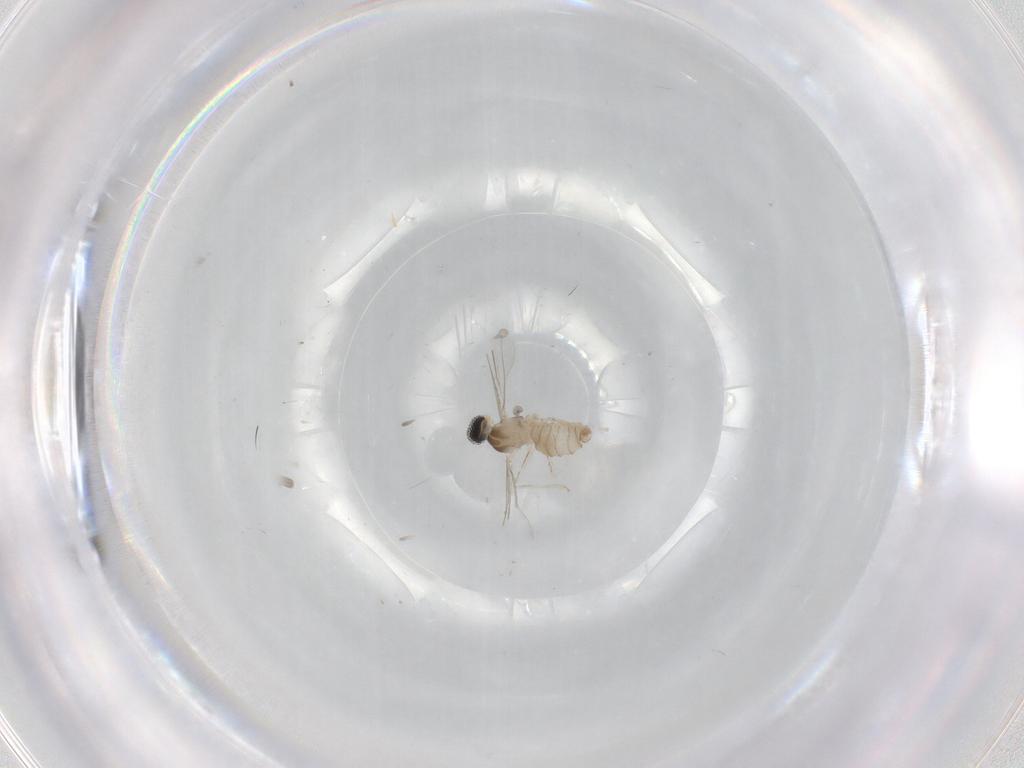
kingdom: Animalia
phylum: Arthropoda
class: Insecta
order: Diptera
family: Cecidomyiidae
